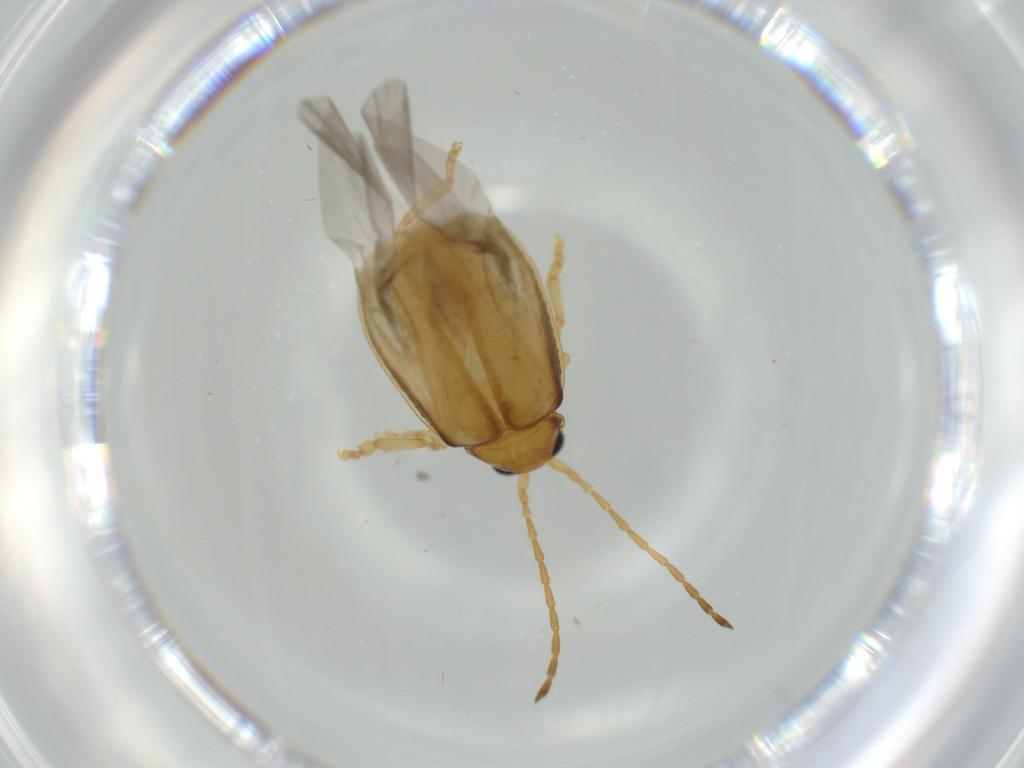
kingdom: Animalia
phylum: Arthropoda
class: Insecta
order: Coleoptera
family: Chrysomelidae
